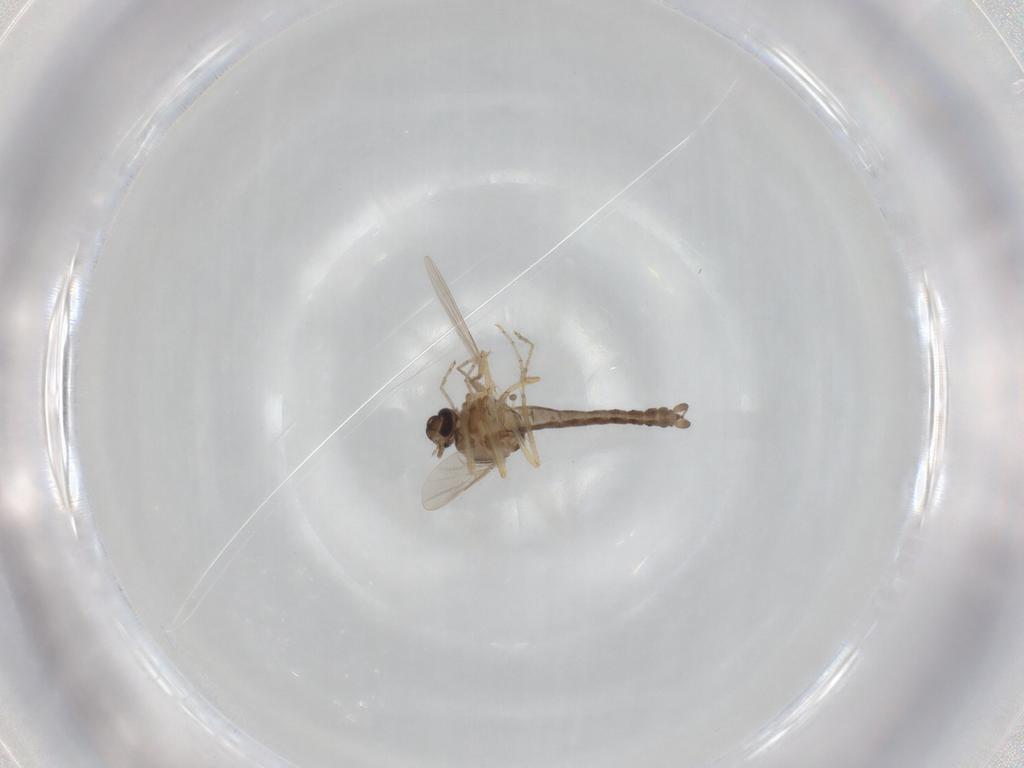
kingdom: Animalia
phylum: Arthropoda
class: Insecta
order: Diptera
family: Ceratopogonidae
